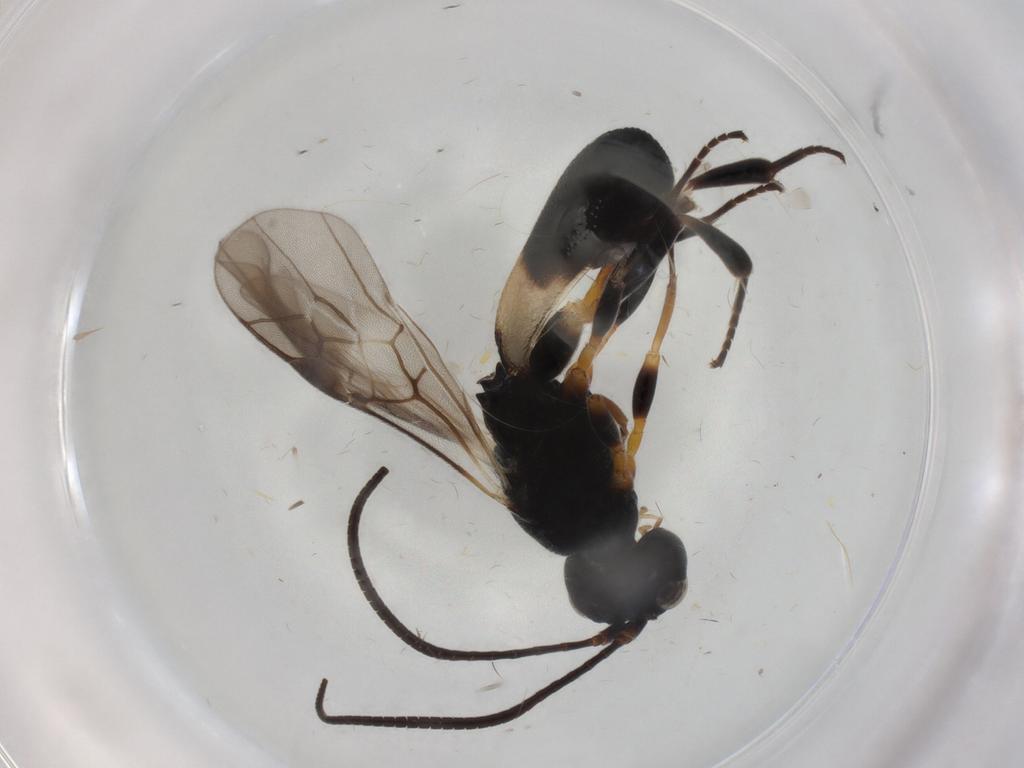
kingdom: Animalia
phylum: Arthropoda
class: Insecta
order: Hymenoptera
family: Braconidae
